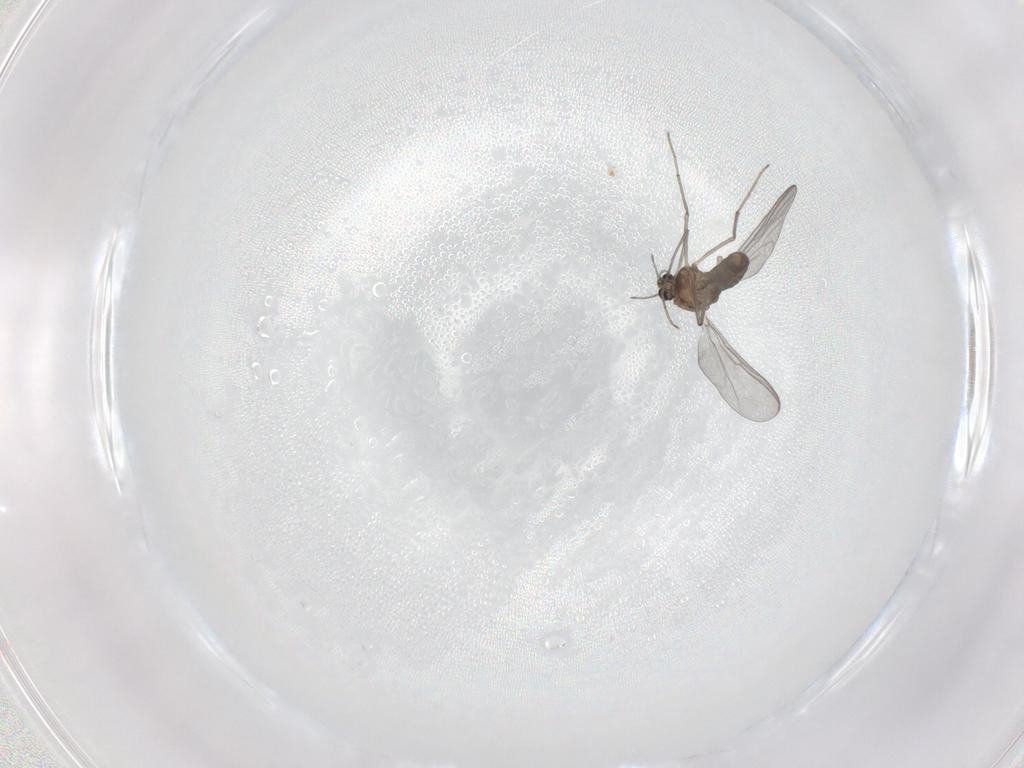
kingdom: Animalia
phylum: Arthropoda
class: Insecta
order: Diptera
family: Chironomidae
